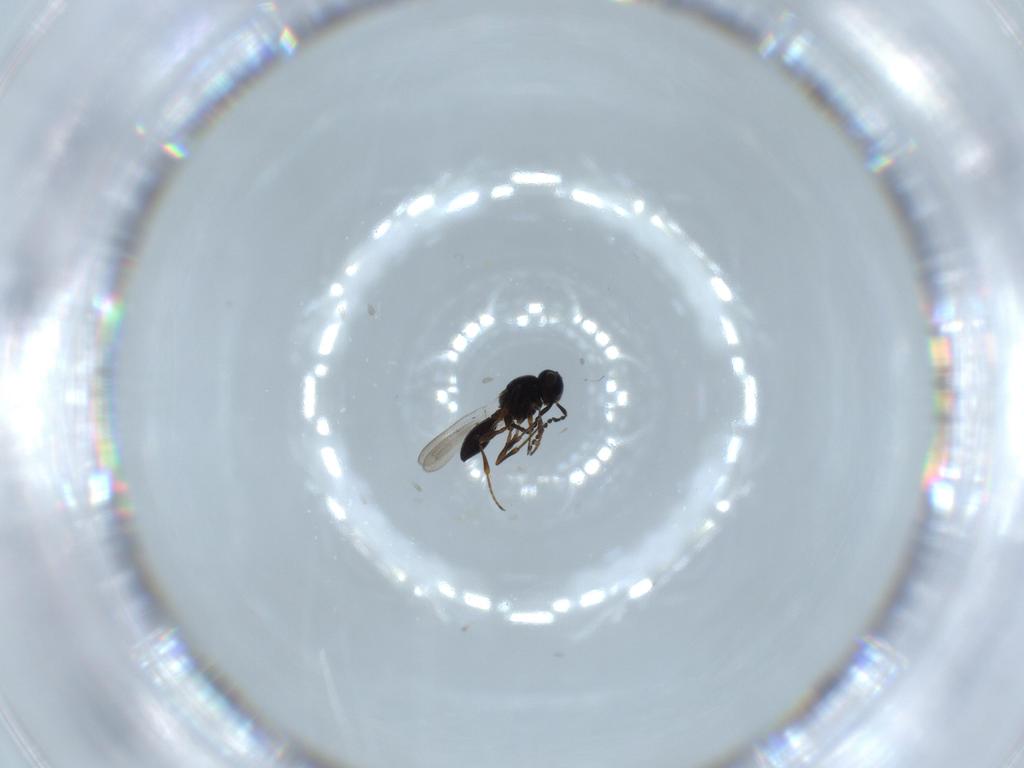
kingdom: Animalia
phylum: Arthropoda
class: Insecta
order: Hymenoptera
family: Platygastridae
